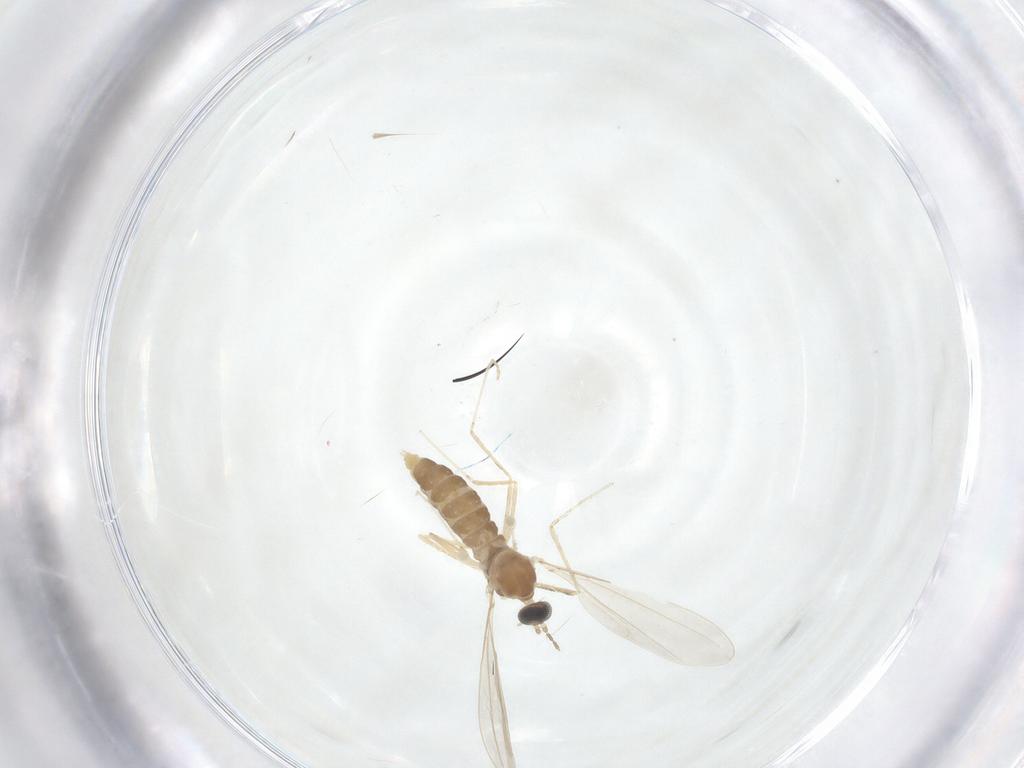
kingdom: Animalia
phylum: Arthropoda
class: Insecta
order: Diptera
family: Cecidomyiidae
